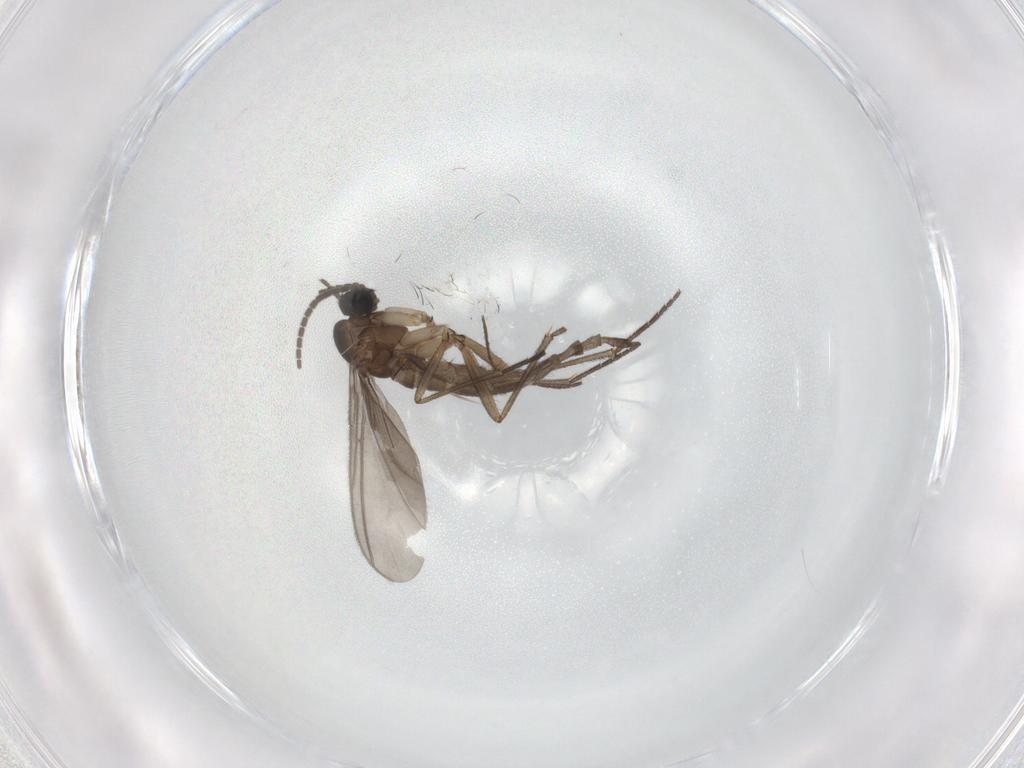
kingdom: Animalia
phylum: Arthropoda
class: Insecta
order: Diptera
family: Sciaridae
